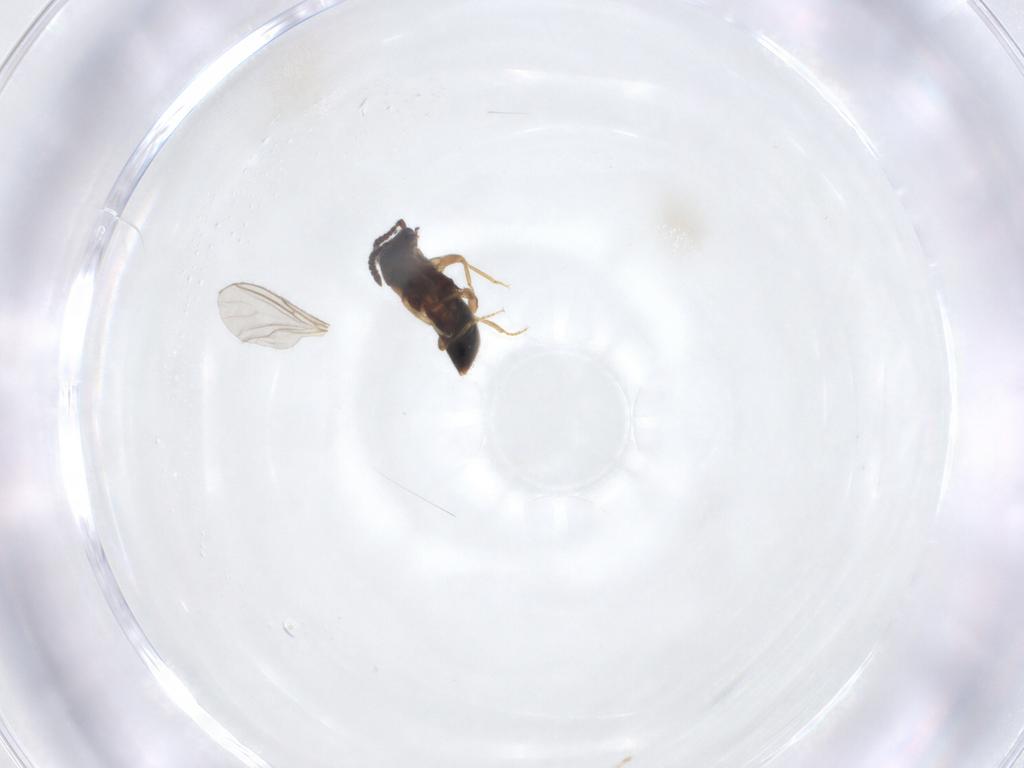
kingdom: Animalia
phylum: Arthropoda
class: Insecta
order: Coleoptera
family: Staphylinidae
